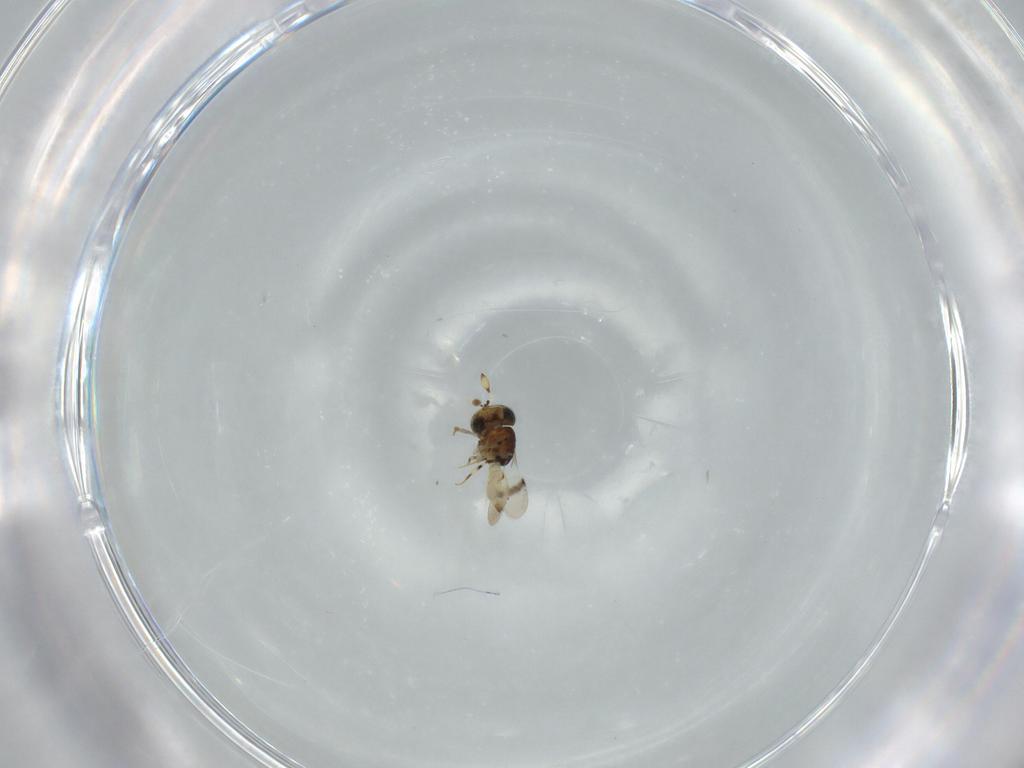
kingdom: Animalia
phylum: Arthropoda
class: Insecta
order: Hymenoptera
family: Scelionidae
